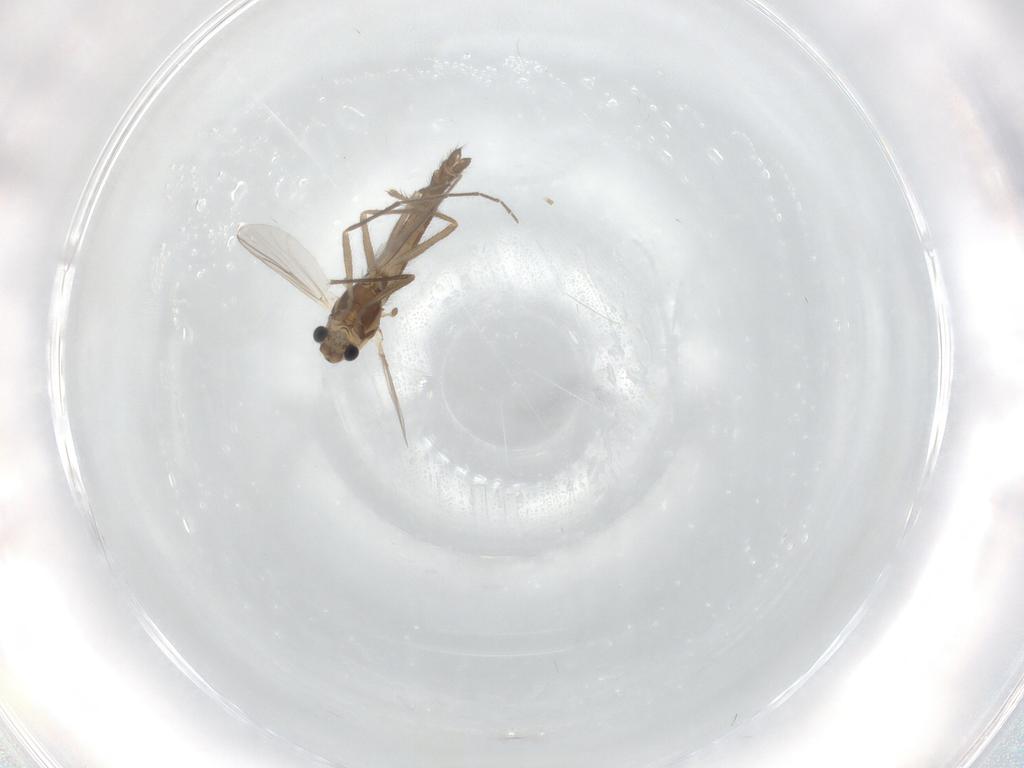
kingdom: Animalia
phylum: Arthropoda
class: Insecta
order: Diptera
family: Chironomidae
